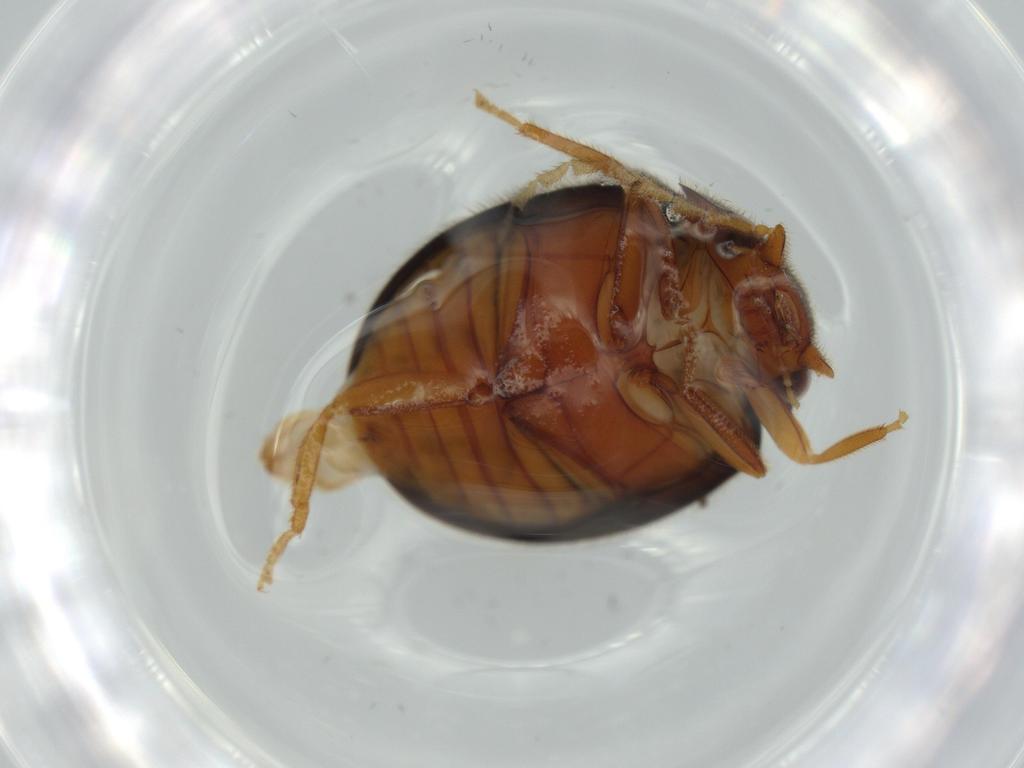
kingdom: Animalia
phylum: Arthropoda
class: Insecta
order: Coleoptera
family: Scirtidae
